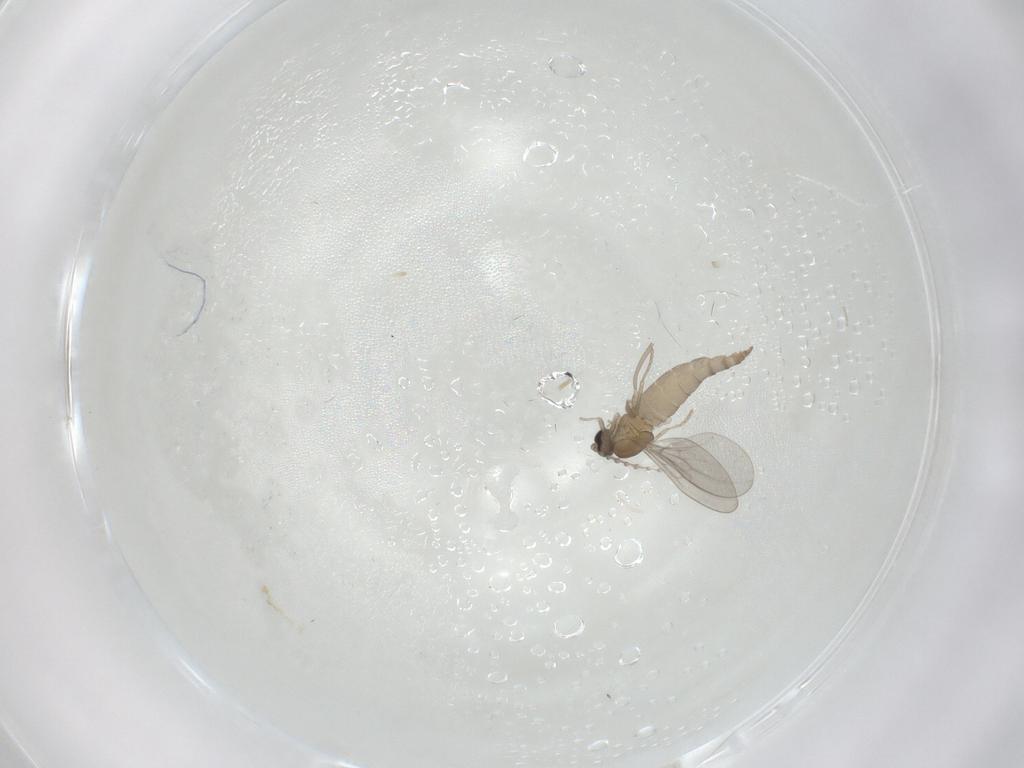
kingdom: Animalia
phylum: Arthropoda
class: Insecta
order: Diptera
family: Cecidomyiidae
